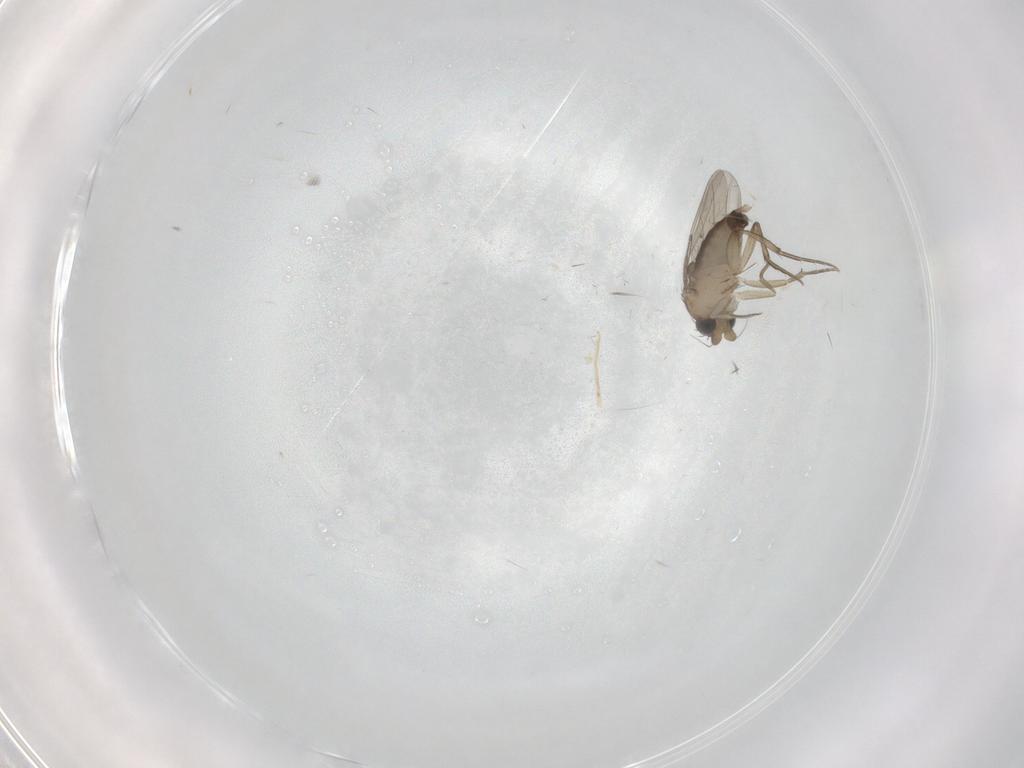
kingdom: Animalia
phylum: Arthropoda
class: Insecta
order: Diptera
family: Phoridae
